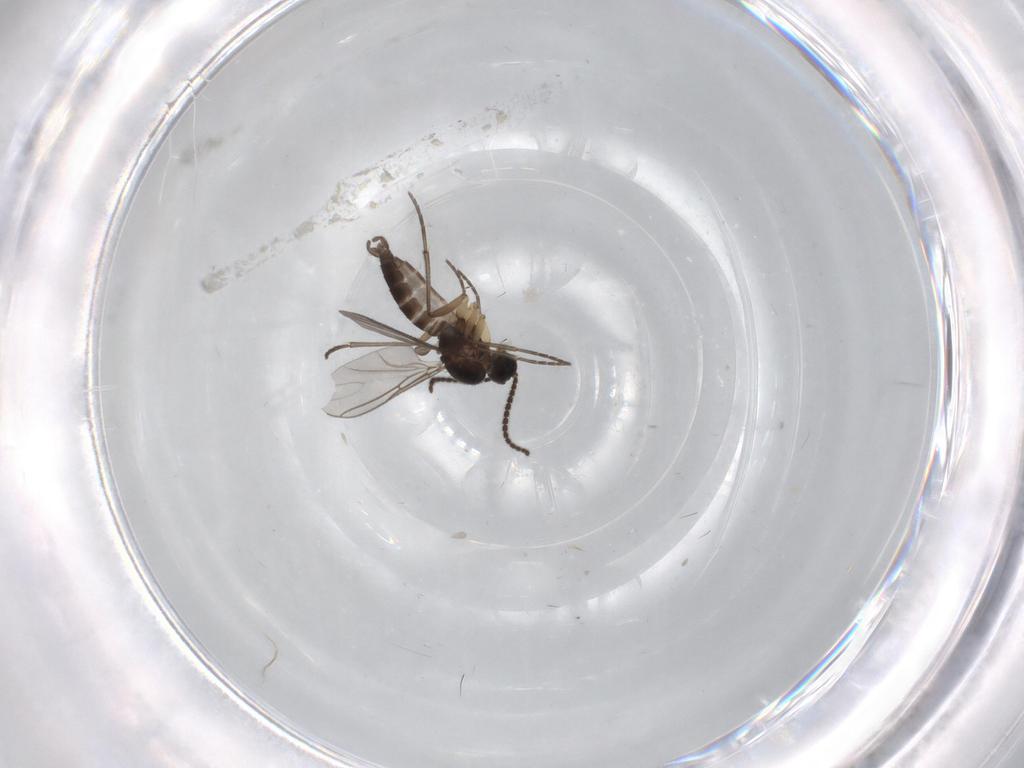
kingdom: Animalia
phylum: Arthropoda
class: Insecta
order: Diptera
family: Sciaridae
